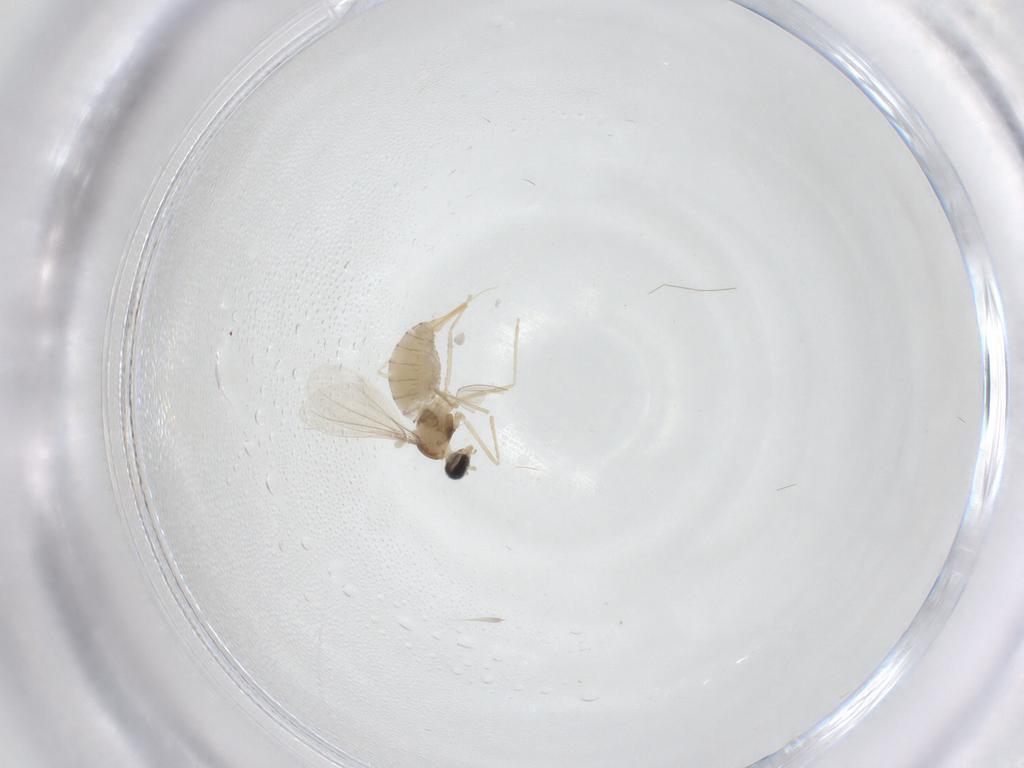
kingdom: Animalia
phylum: Arthropoda
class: Insecta
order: Diptera
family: Cecidomyiidae
